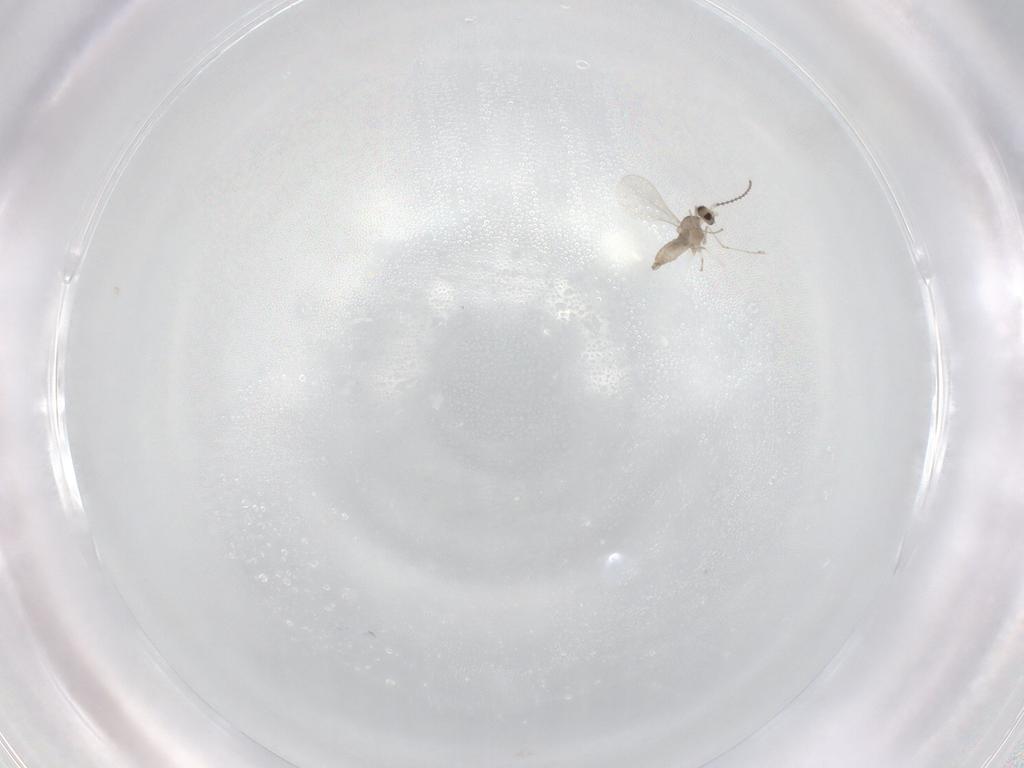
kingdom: Animalia
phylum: Arthropoda
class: Insecta
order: Diptera
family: Cecidomyiidae
